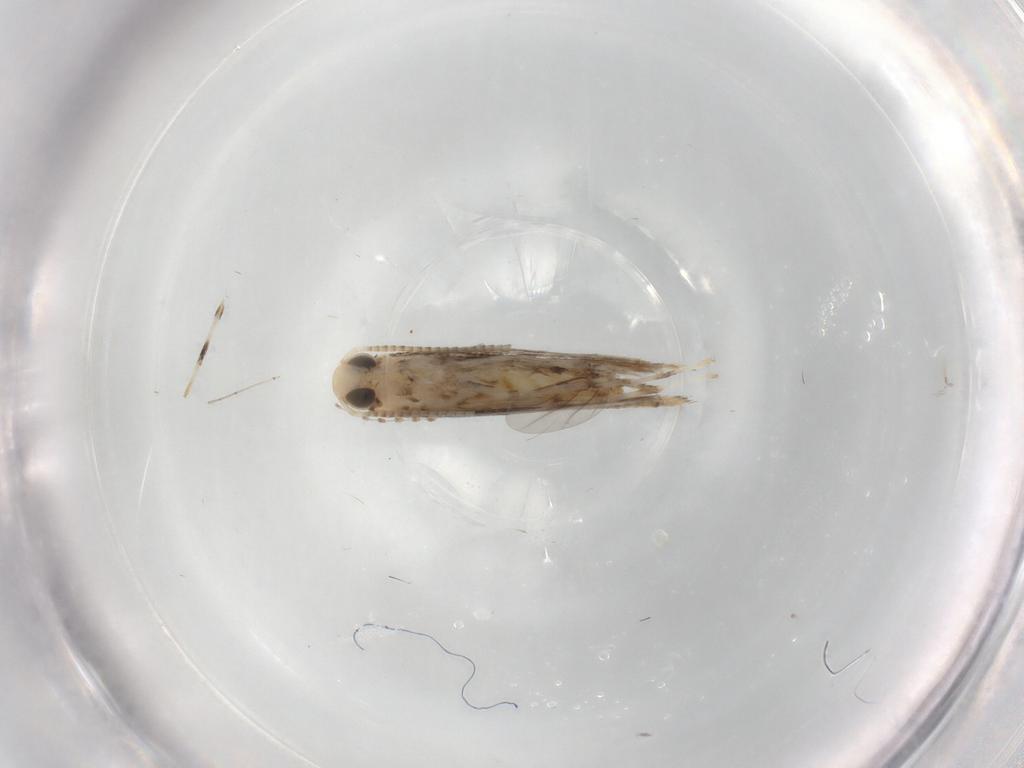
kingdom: Animalia
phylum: Arthropoda
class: Insecta
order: Lepidoptera
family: Gracillariidae
